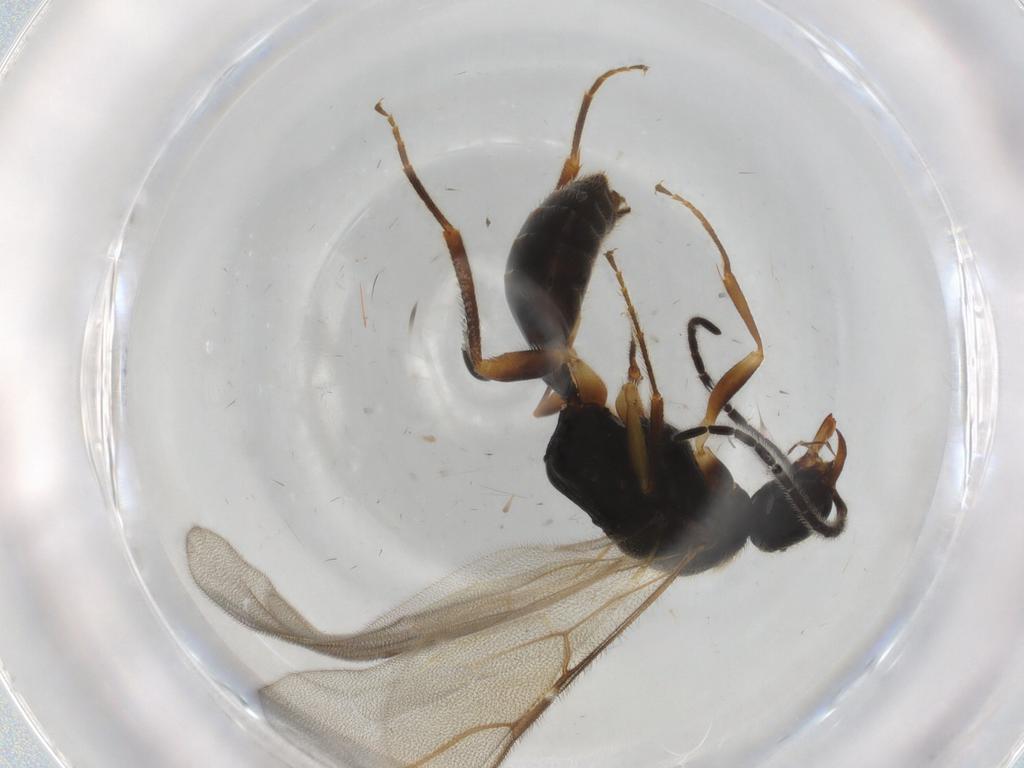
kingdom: Animalia
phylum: Arthropoda
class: Insecta
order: Hymenoptera
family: Bethylidae
